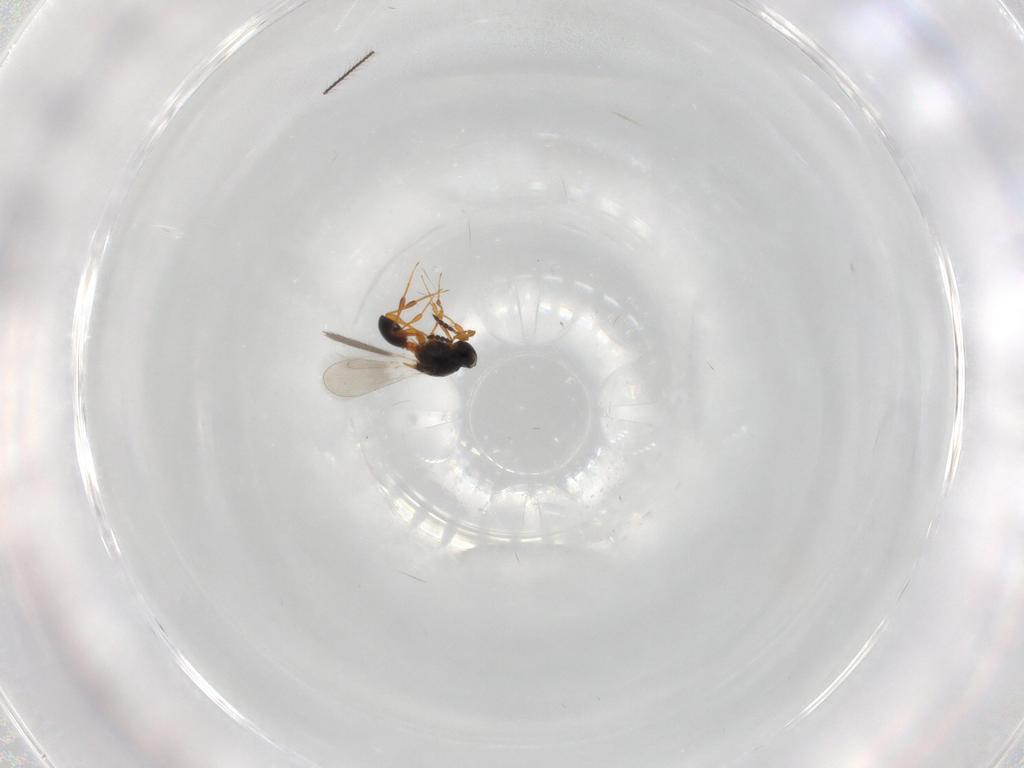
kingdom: Animalia
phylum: Arthropoda
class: Insecta
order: Hymenoptera
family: Platygastridae
